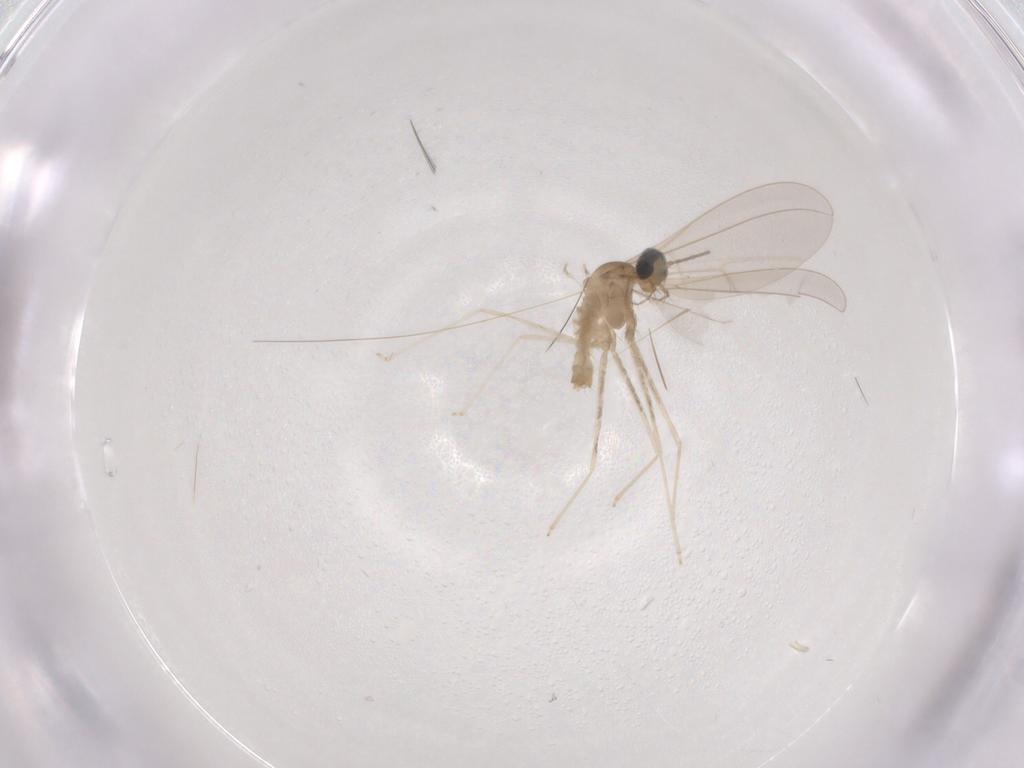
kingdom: Animalia
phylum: Arthropoda
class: Insecta
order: Diptera
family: Cecidomyiidae
